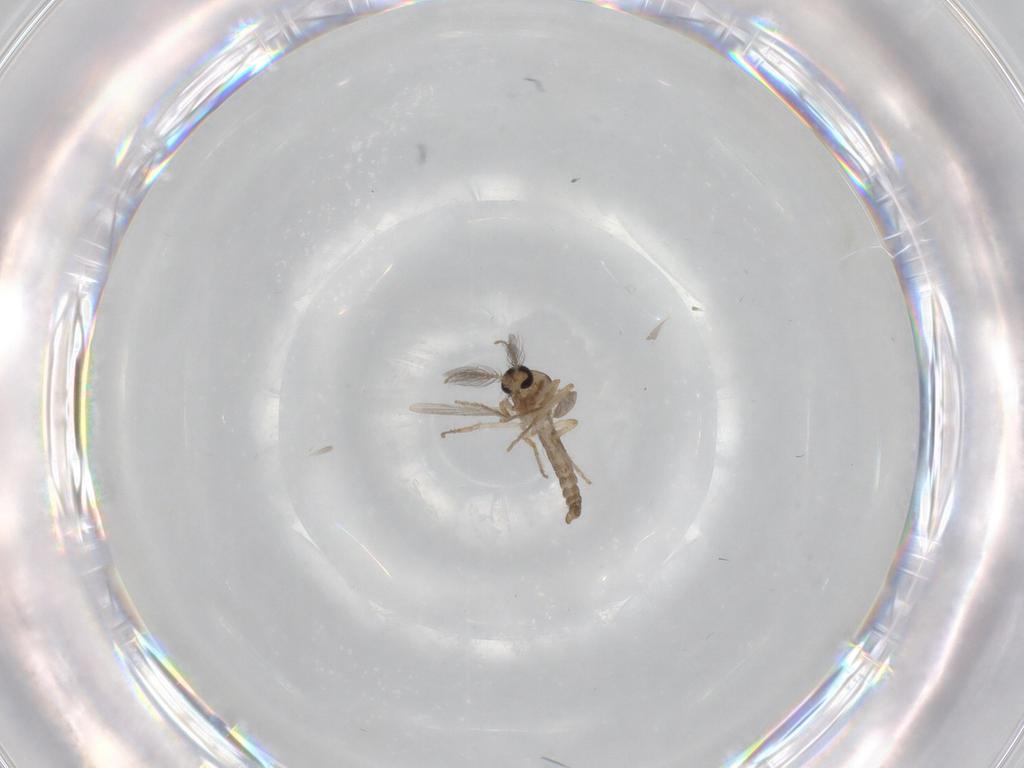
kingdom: Animalia
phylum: Arthropoda
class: Insecta
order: Diptera
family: Ceratopogonidae
